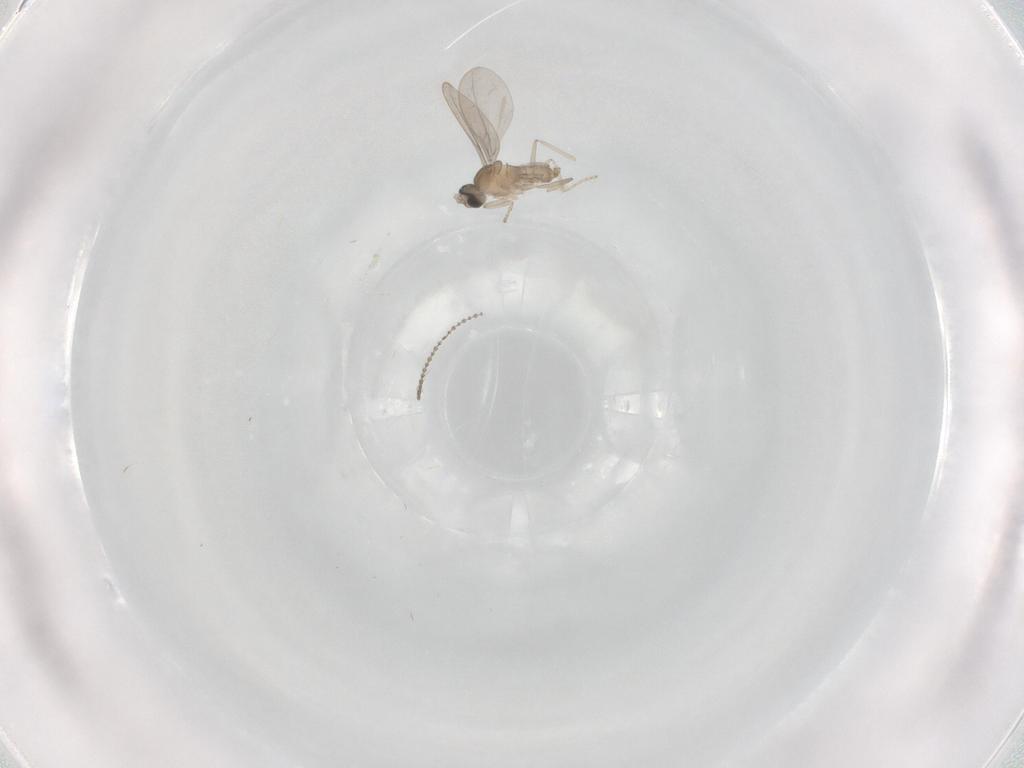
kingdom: Animalia
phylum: Arthropoda
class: Insecta
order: Diptera
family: Cecidomyiidae
